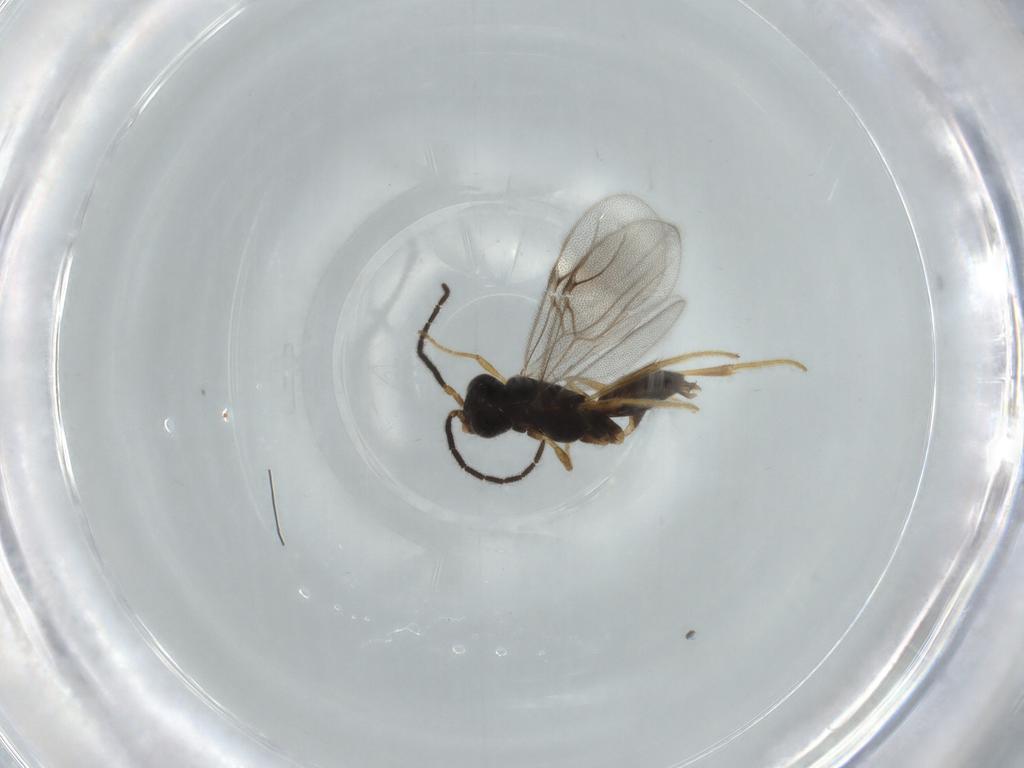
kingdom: Animalia
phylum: Arthropoda
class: Insecta
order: Hymenoptera
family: Dryinidae
